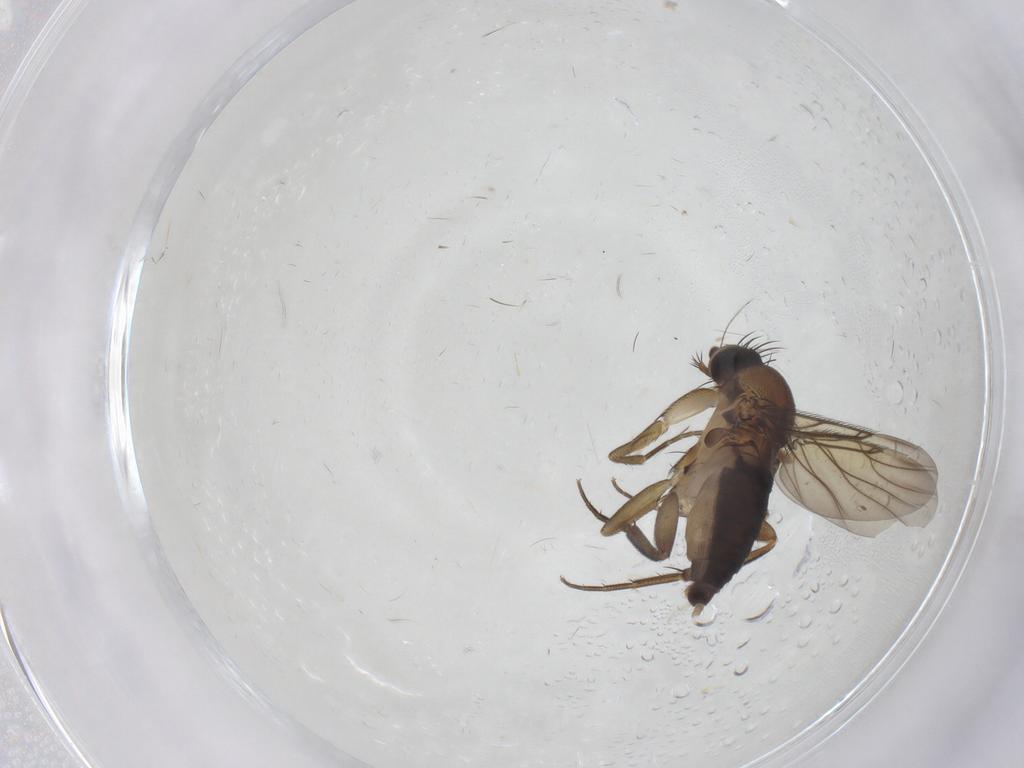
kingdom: Animalia
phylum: Arthropoda
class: Insecta
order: Diptera
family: Phoridae
